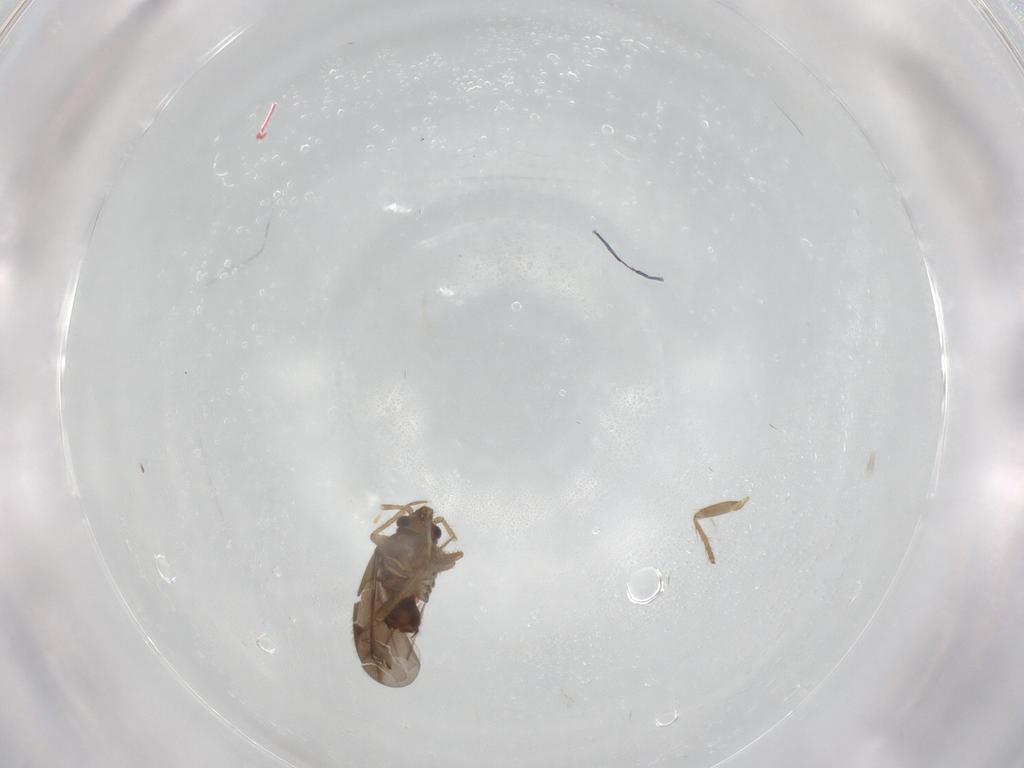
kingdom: Animalia
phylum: Arthropoda
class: Insecta
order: Hemiptera
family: Ceratocombidae
